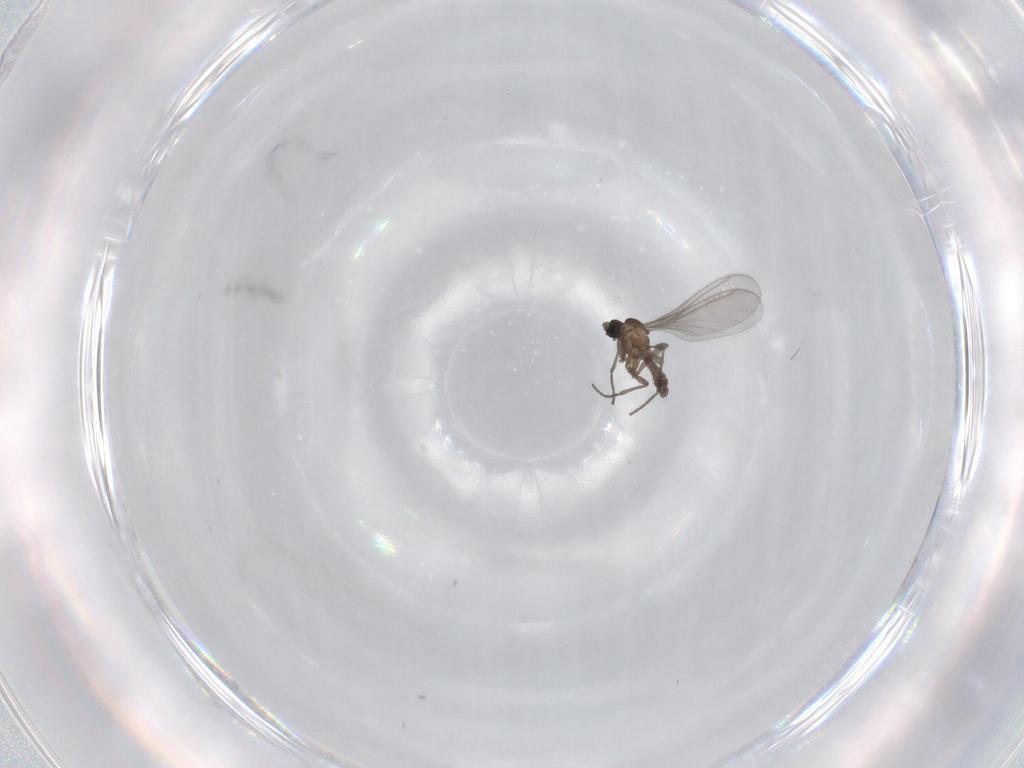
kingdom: Animalia
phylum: Arthropoda
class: Insecta
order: Diptera
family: Sciaridae
